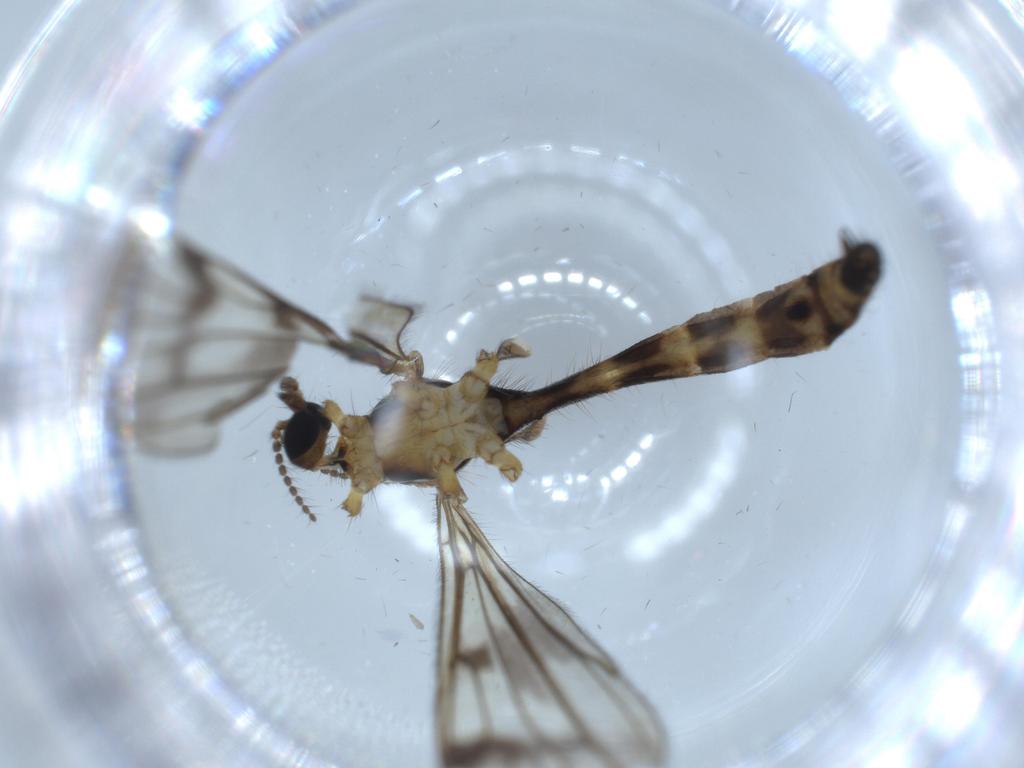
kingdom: Animalia
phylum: Arthropoda
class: Insecta
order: Diptera
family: Limoniidae
